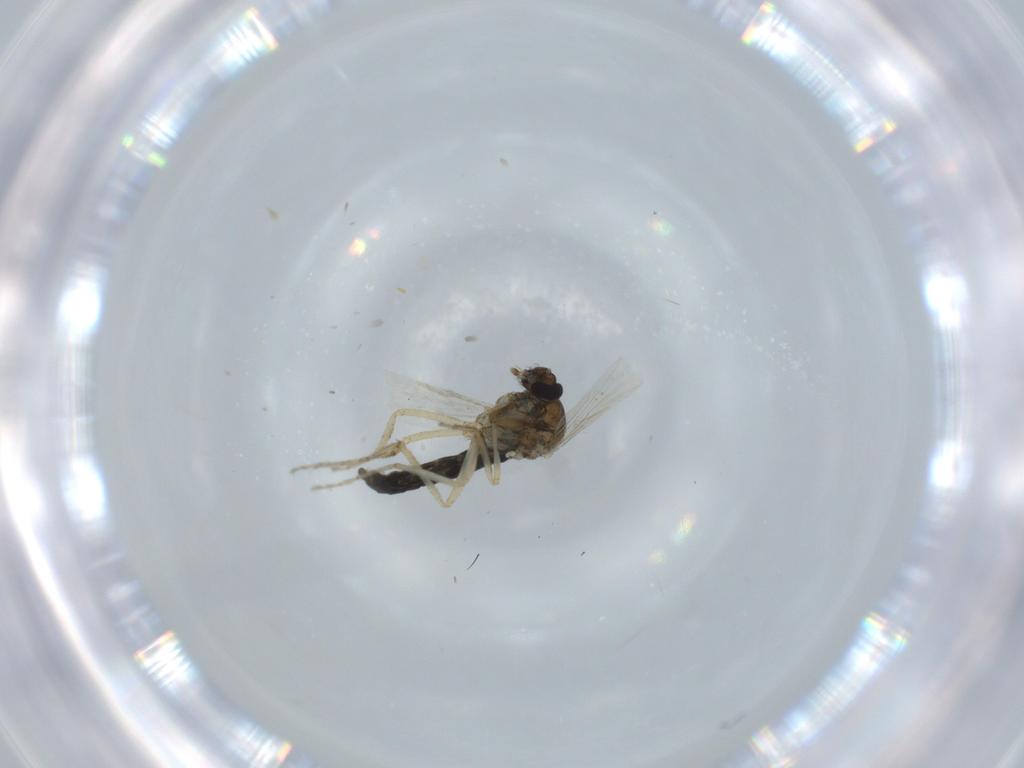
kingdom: Animalia
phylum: Arthropoda
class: Insecta
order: Diptera
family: Ceratopogonidae
